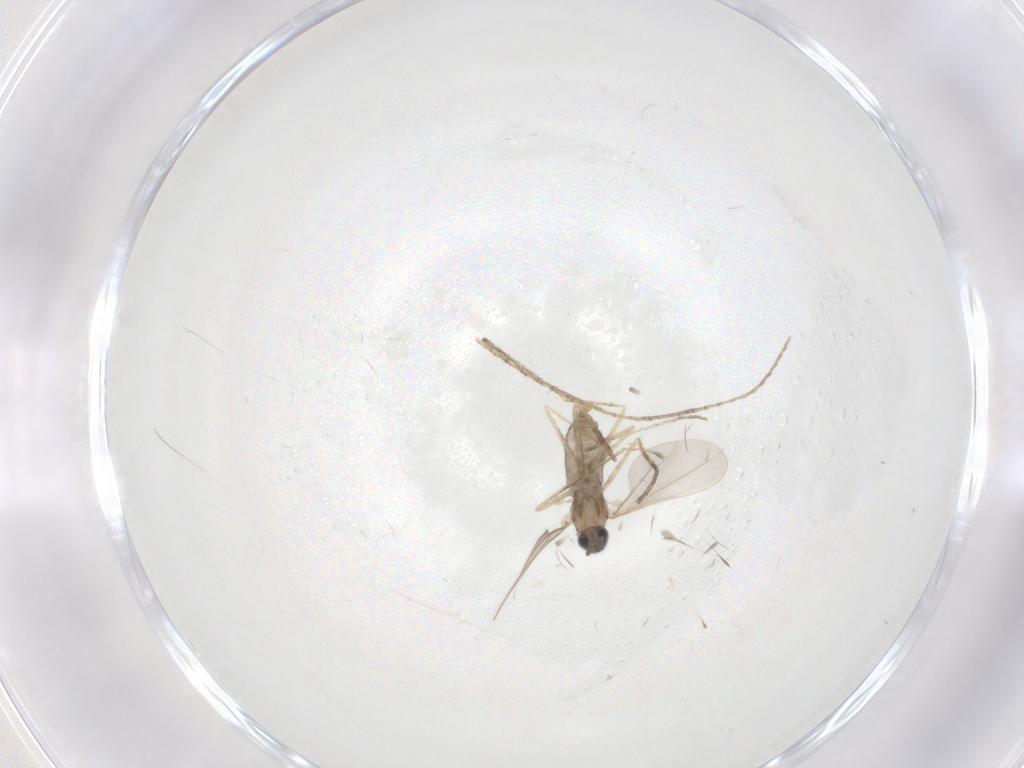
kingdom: Animalia
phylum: Arthropoda
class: Insecta
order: Diptera
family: Cecidomyiidae
